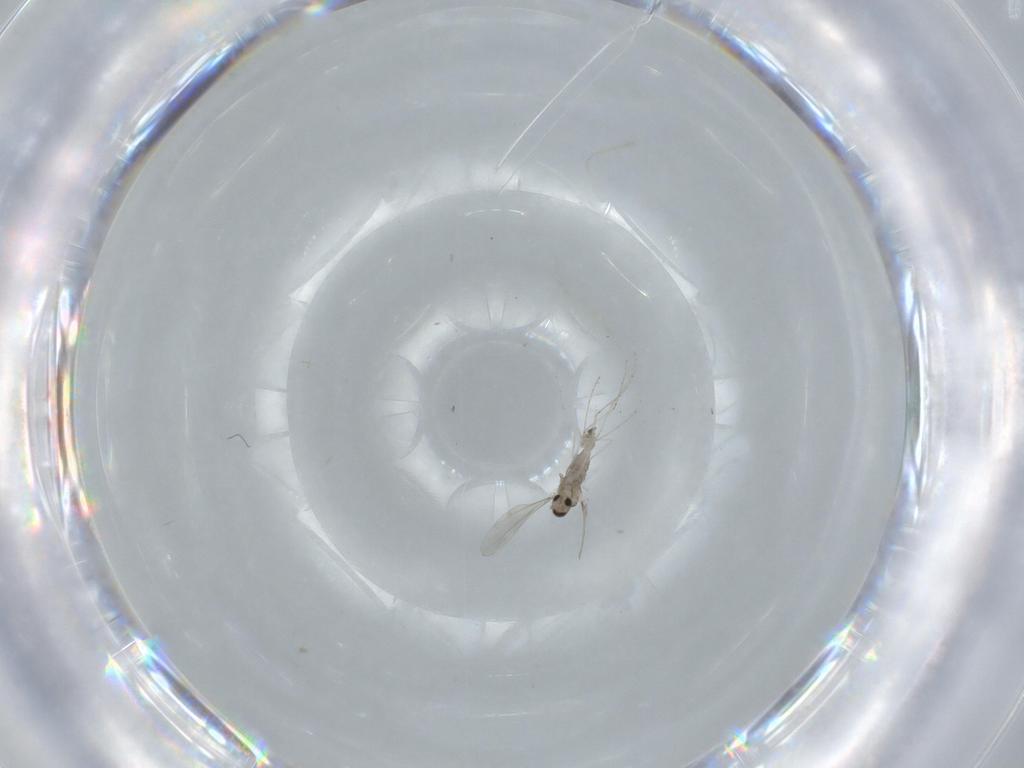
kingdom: Animalia
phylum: Arthropoda
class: Insecta
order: Diptera
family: Cecidomyiidae
